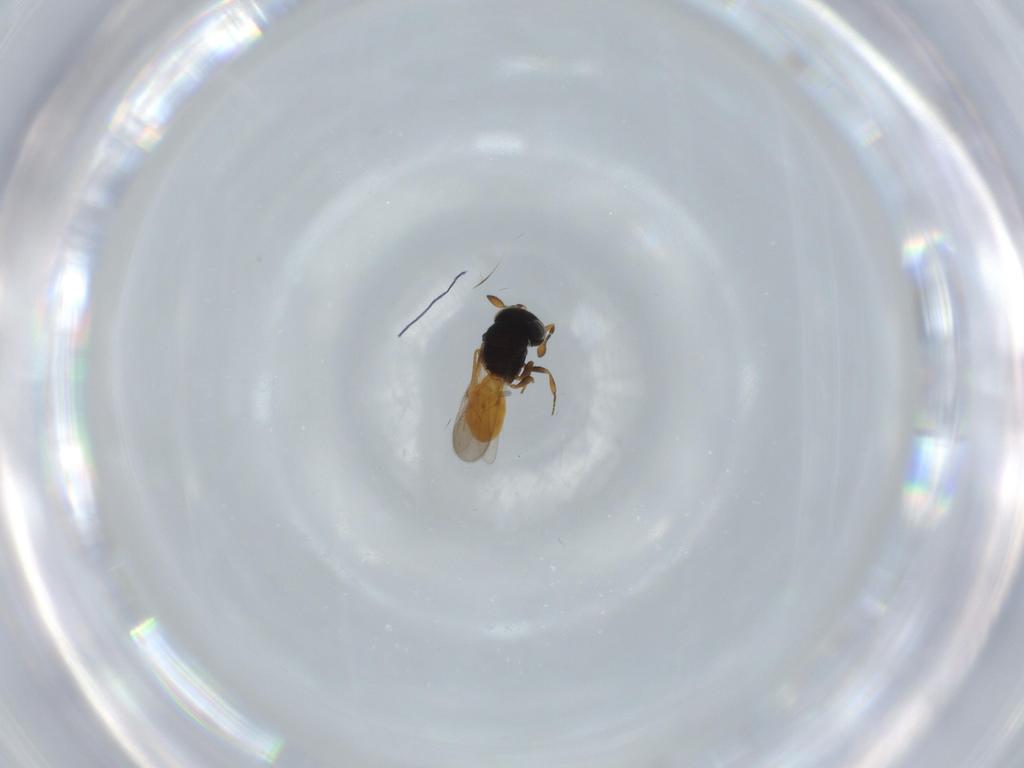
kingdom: Animalia
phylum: Arthropoda
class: Insecta
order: Hymenoptera
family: Scelionidae
